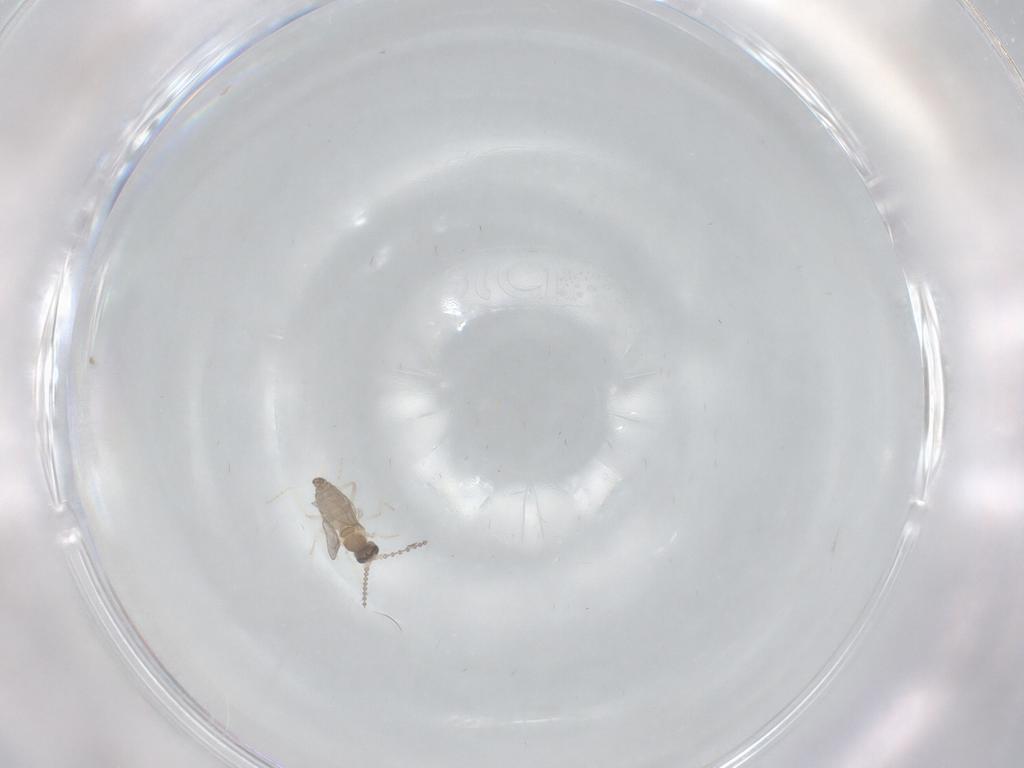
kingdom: Animalia
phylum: Arthropoda
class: Insecta
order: Diptera
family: Cecidomyiidae
